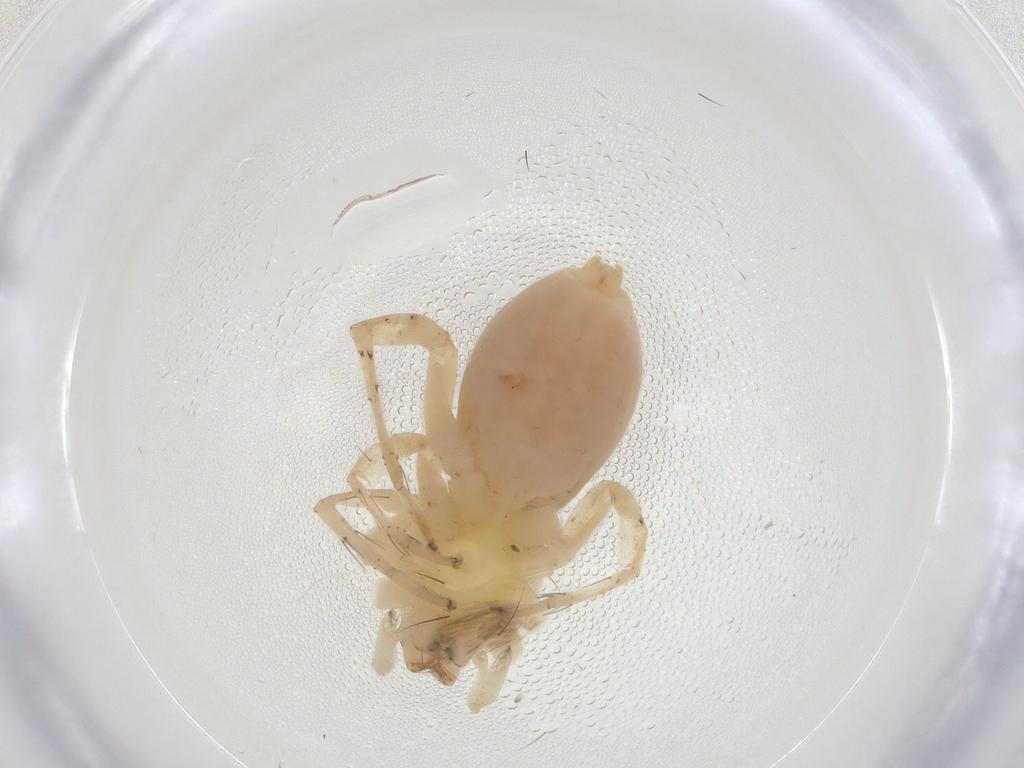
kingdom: Animalia
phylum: Arthropoda
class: Arachnida
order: Araneae
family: Anyphaenidae
